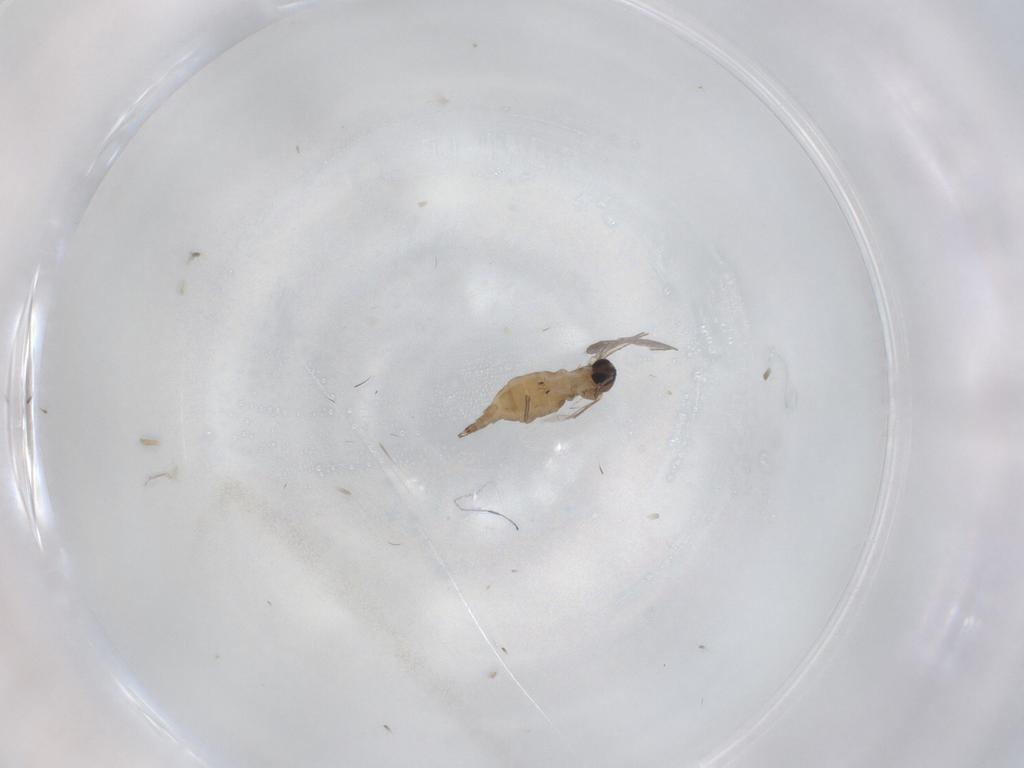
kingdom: Animalia
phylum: Arthropoda
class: Insecta
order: Diptera
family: Sciaridae
